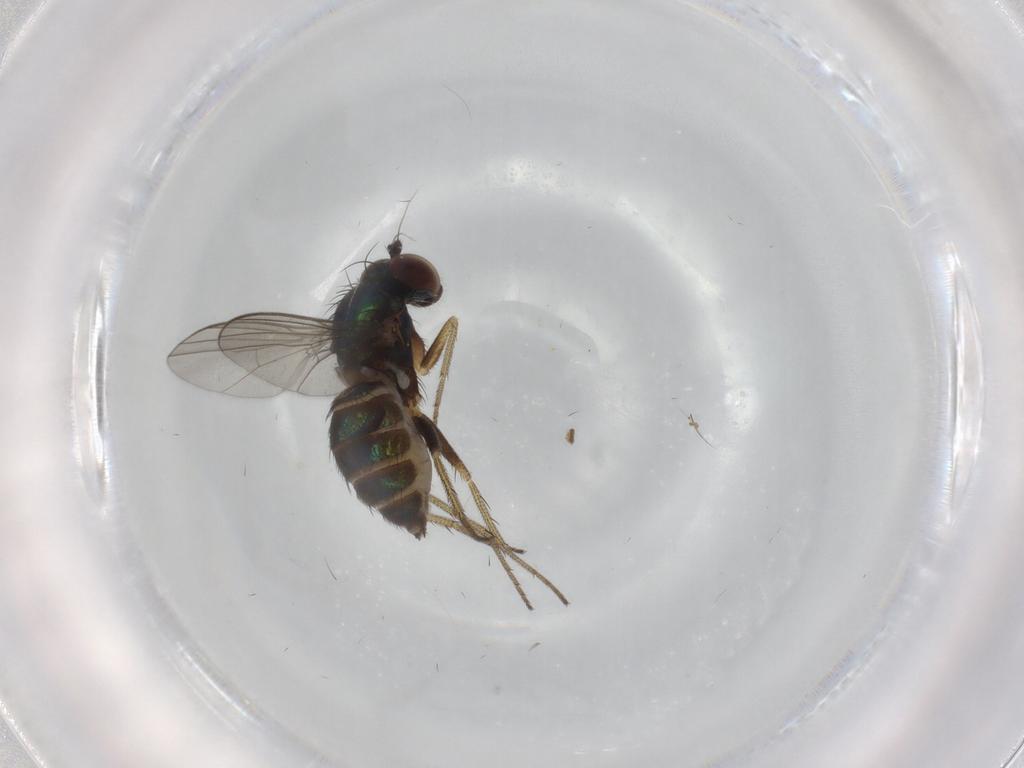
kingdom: Animalia
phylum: Arthropoda
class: Insecta
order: Diptera
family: Dolichopodidae
